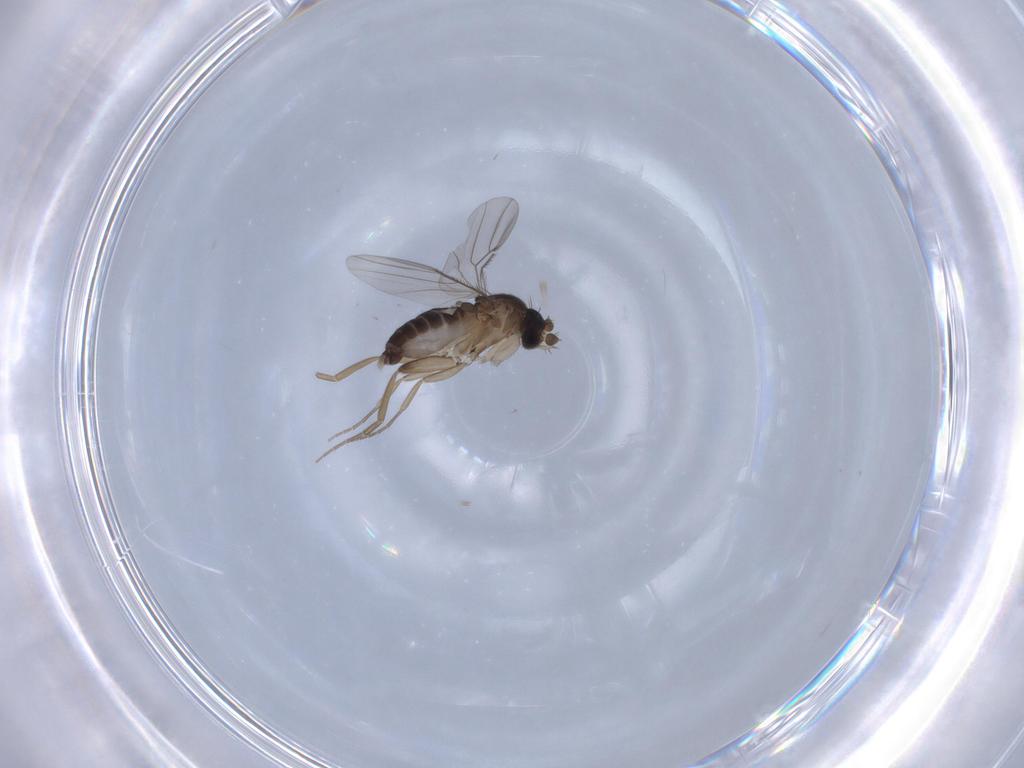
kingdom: Animalia
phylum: Arthropoda
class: Insecta
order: Diptera
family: Phoridae
